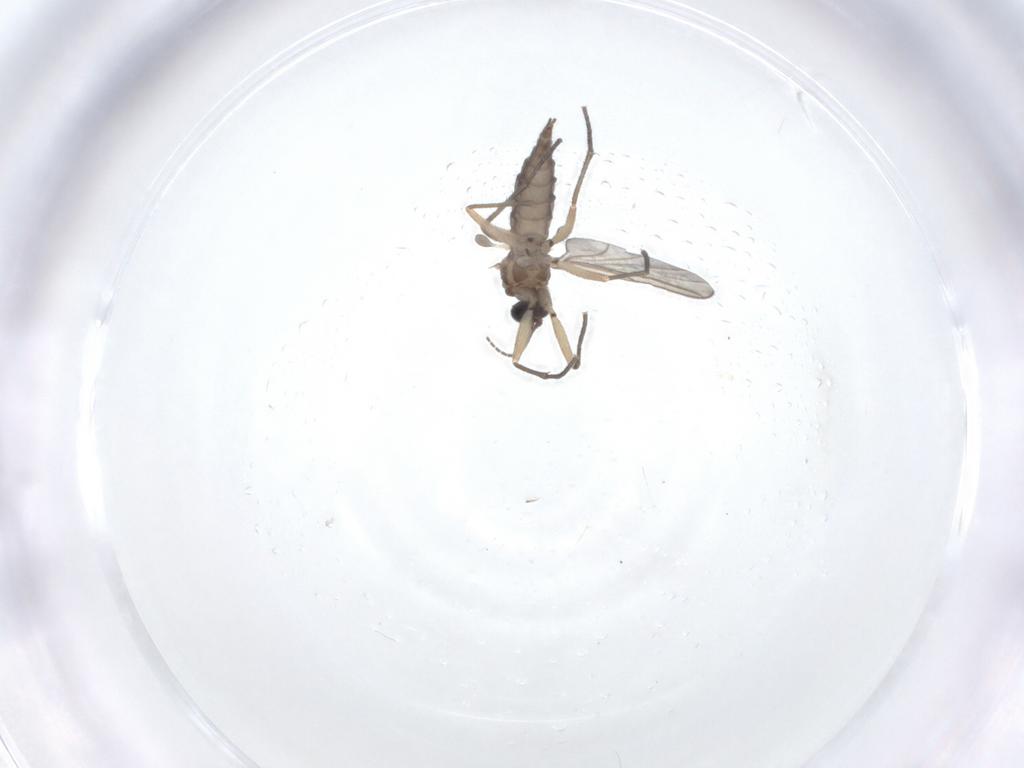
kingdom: Animalia
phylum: Arthropoda
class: Insecta
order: Diptera
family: Sciaridae
